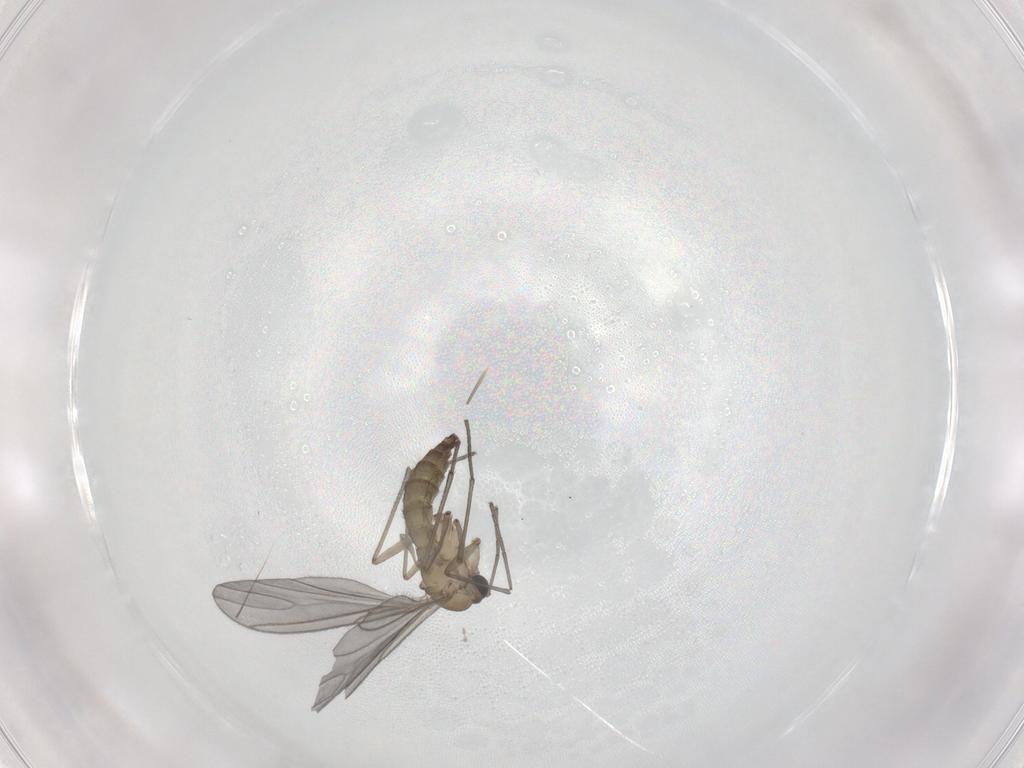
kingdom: Animalia
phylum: Arthropoda
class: Insecta
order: Diptera
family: Sciaridae
